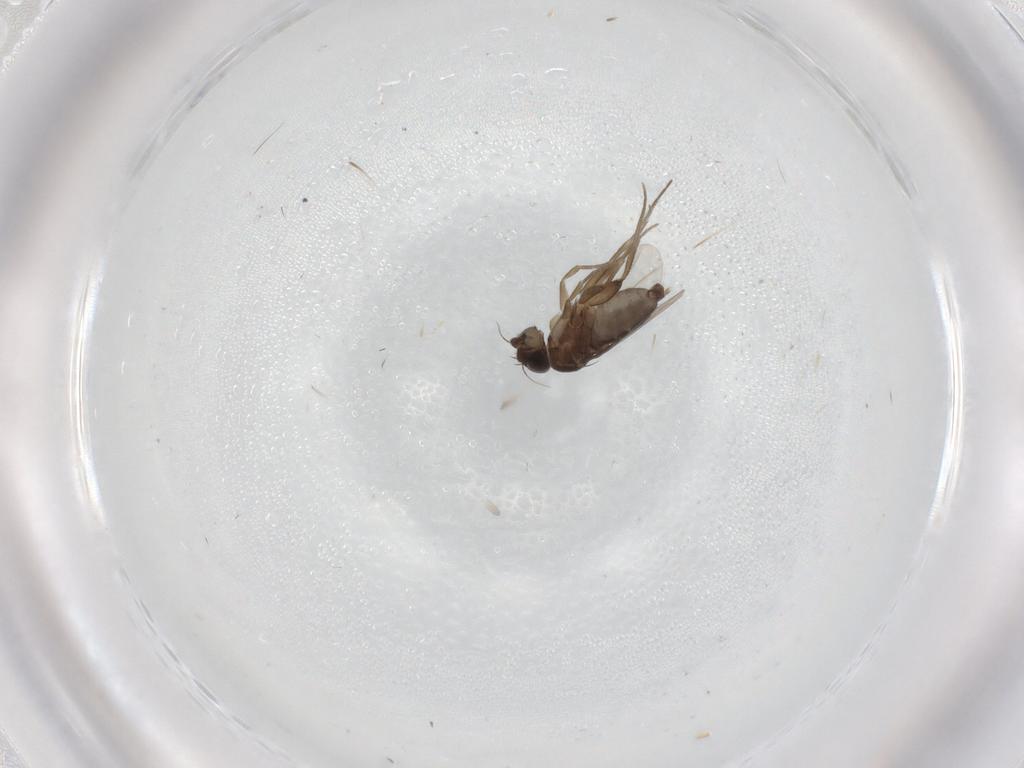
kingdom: Animalia
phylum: Arthropoda
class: Insecta
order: Diptera
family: Phoridae
